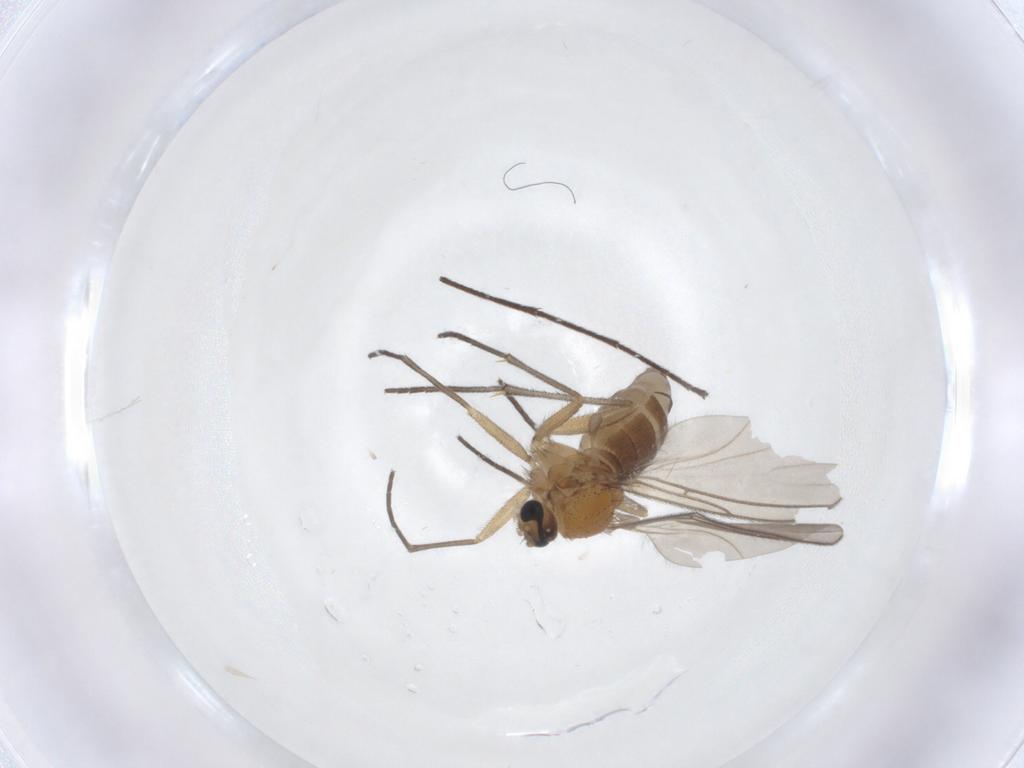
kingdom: Animalia
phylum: Arthropoda
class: Insecta
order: Diptera
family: Sciaridae
